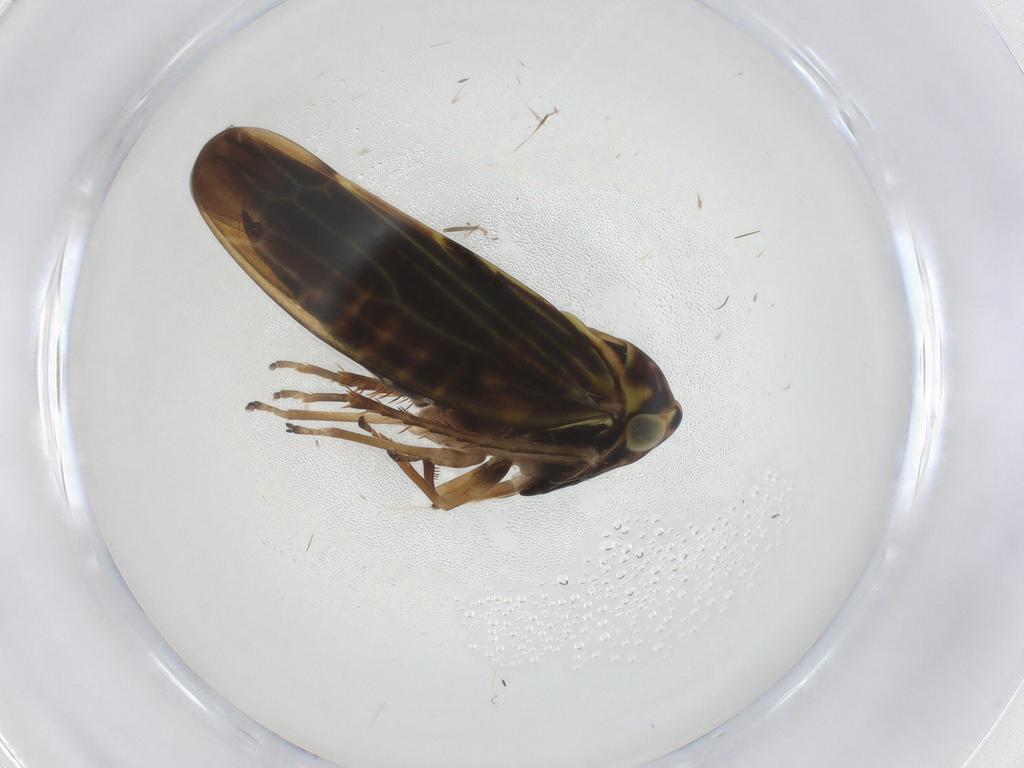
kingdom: Animalia
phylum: Arthropoda
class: Insecta
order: Hemiptera
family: Cicadellidae
